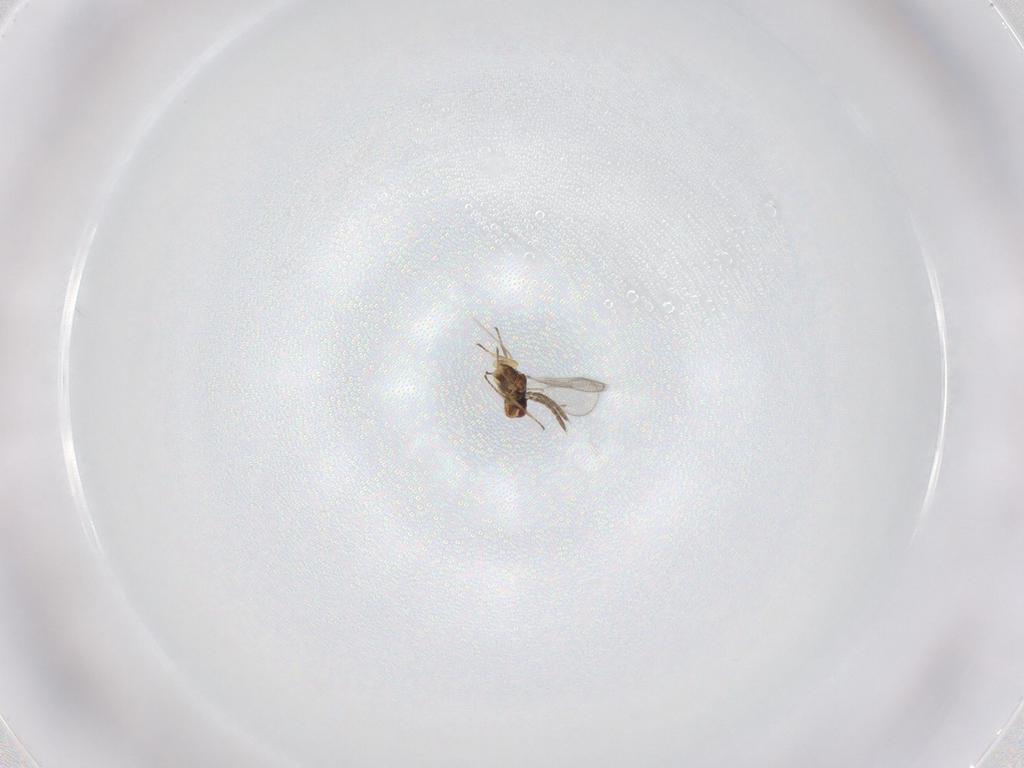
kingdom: Animalia
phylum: Arthropoda
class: Insecta
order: Hymenoptera
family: Eulophidae
